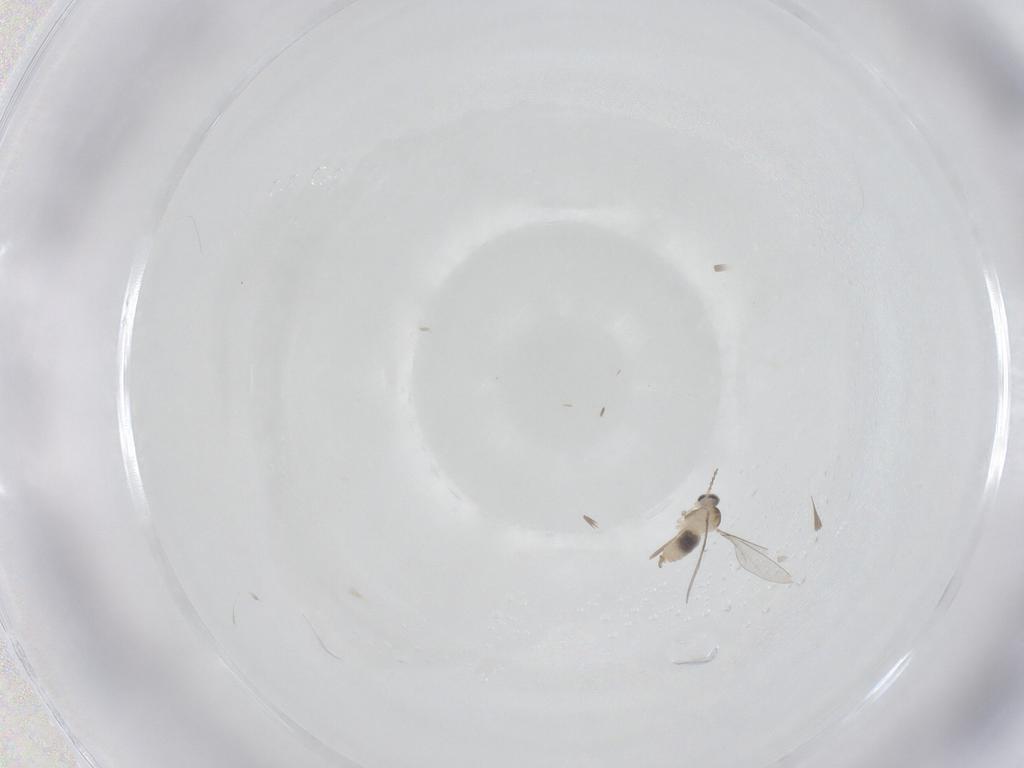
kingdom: Animalia
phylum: Arthropoda
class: Insecta
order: Diptera
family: Cecidomyiidae
